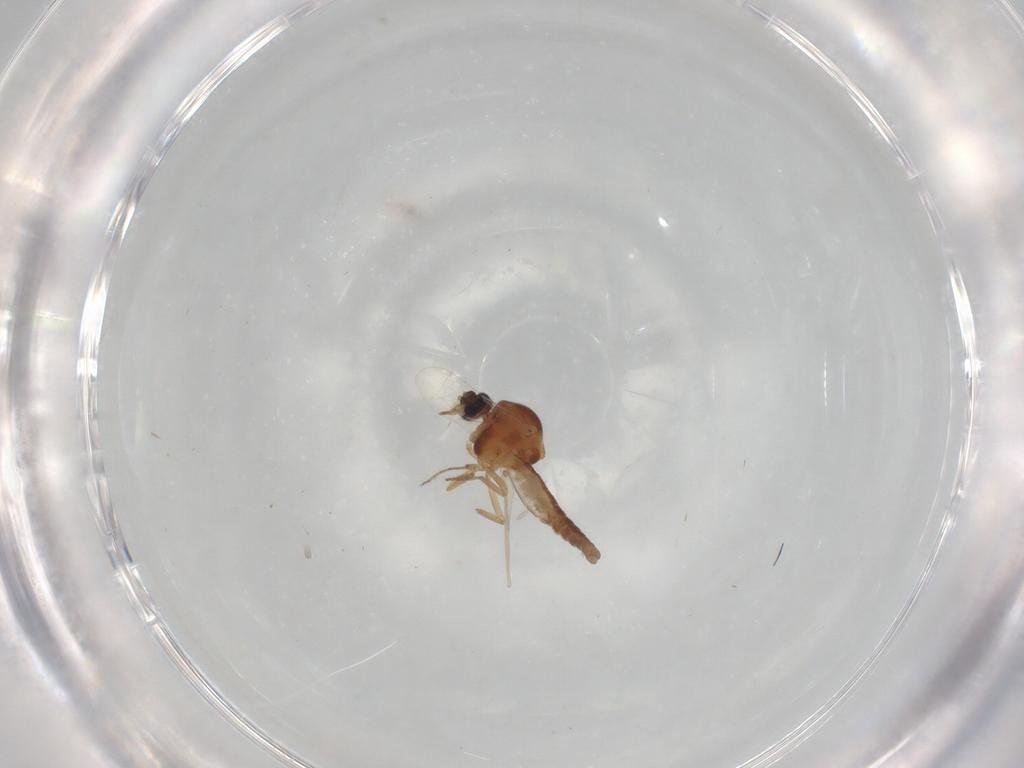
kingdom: Animalia
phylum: Arthropoda
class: Insecta
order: Diptera
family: Ceratopogonidae
